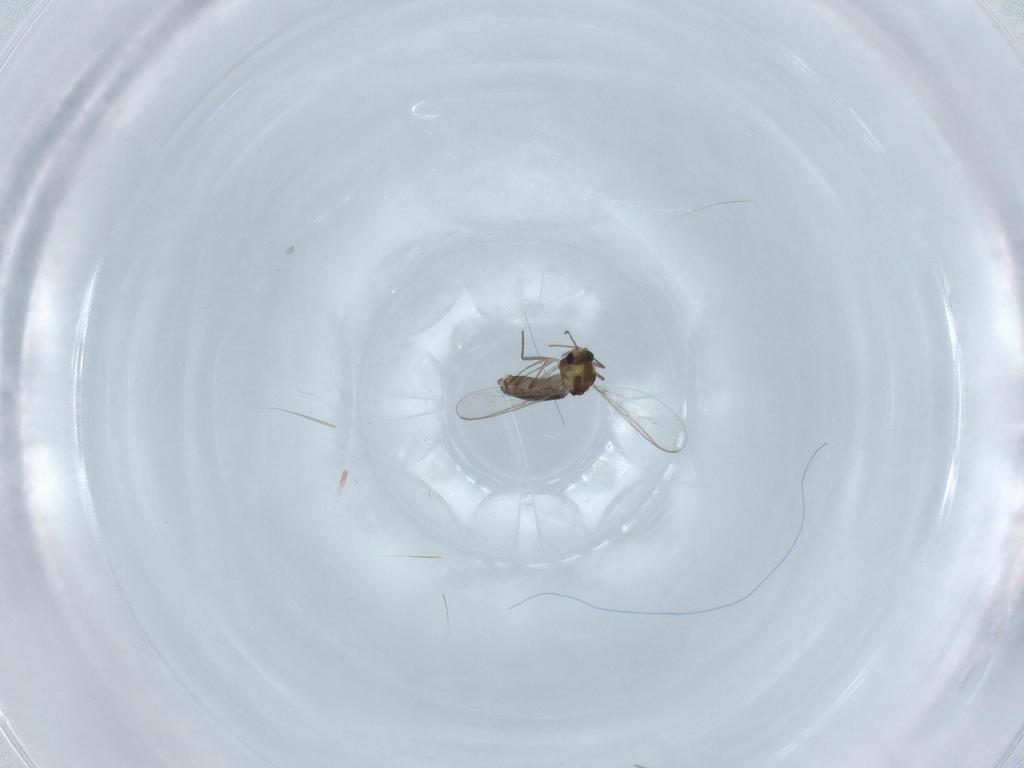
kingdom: Animalia
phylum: Arthropoda
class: Insecta
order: Diptera
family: Chironomidae
